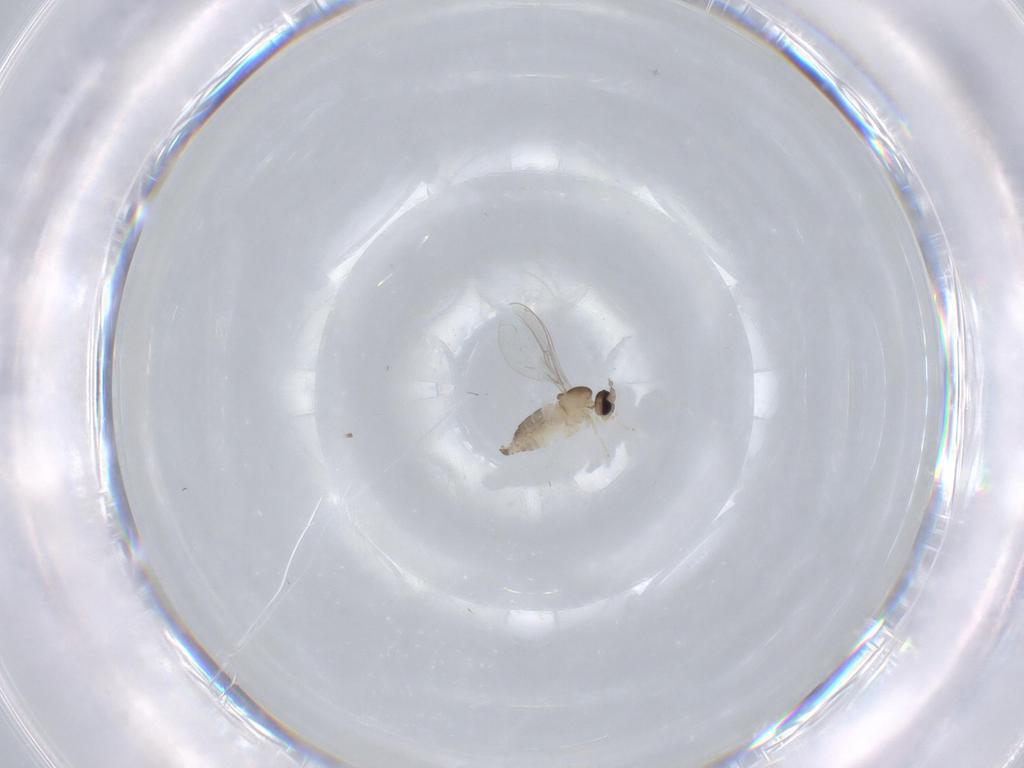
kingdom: Animalia
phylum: Arthropoda
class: Insecta
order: Diptera
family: Cecidomyiidae
